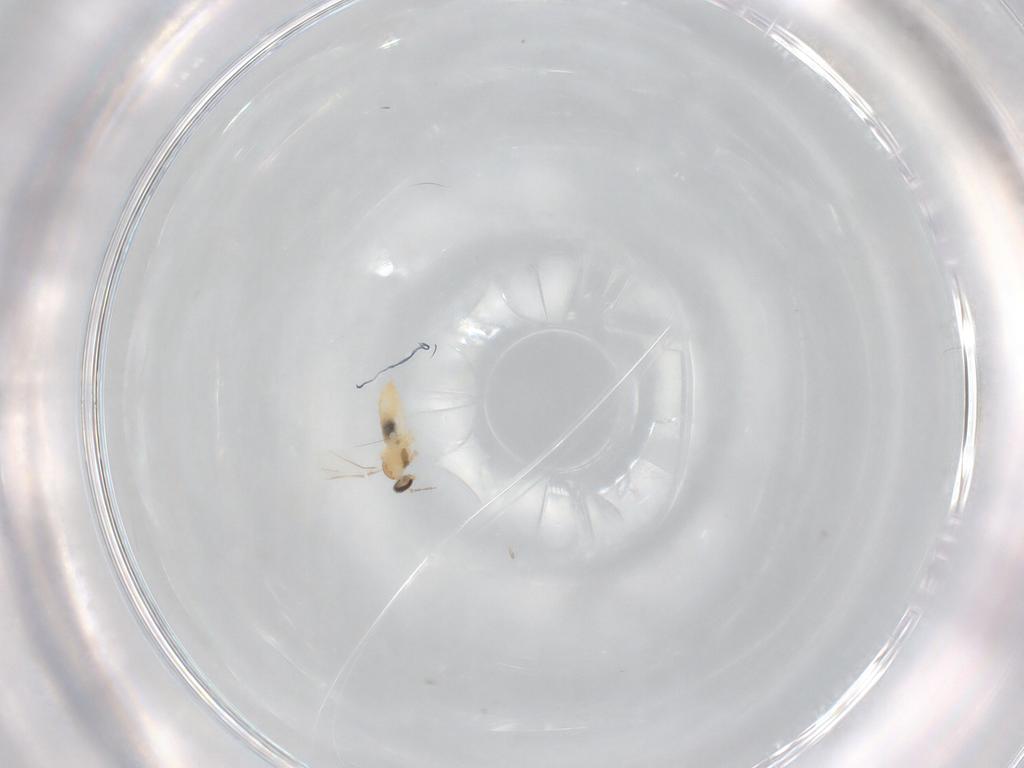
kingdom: Animalia
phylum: Arthropoda
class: Insecta
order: Diptera
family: Cecidomyiidae
